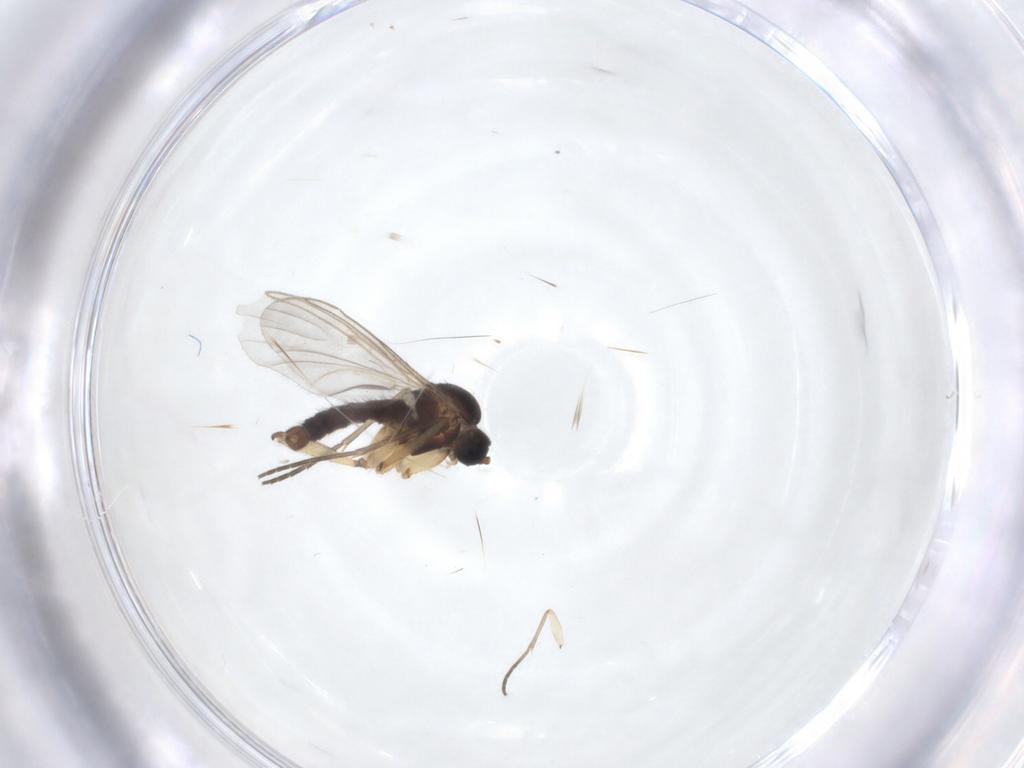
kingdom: Animalia
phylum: Arthropoda
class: Insecta
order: Diptera
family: Sciaridae
